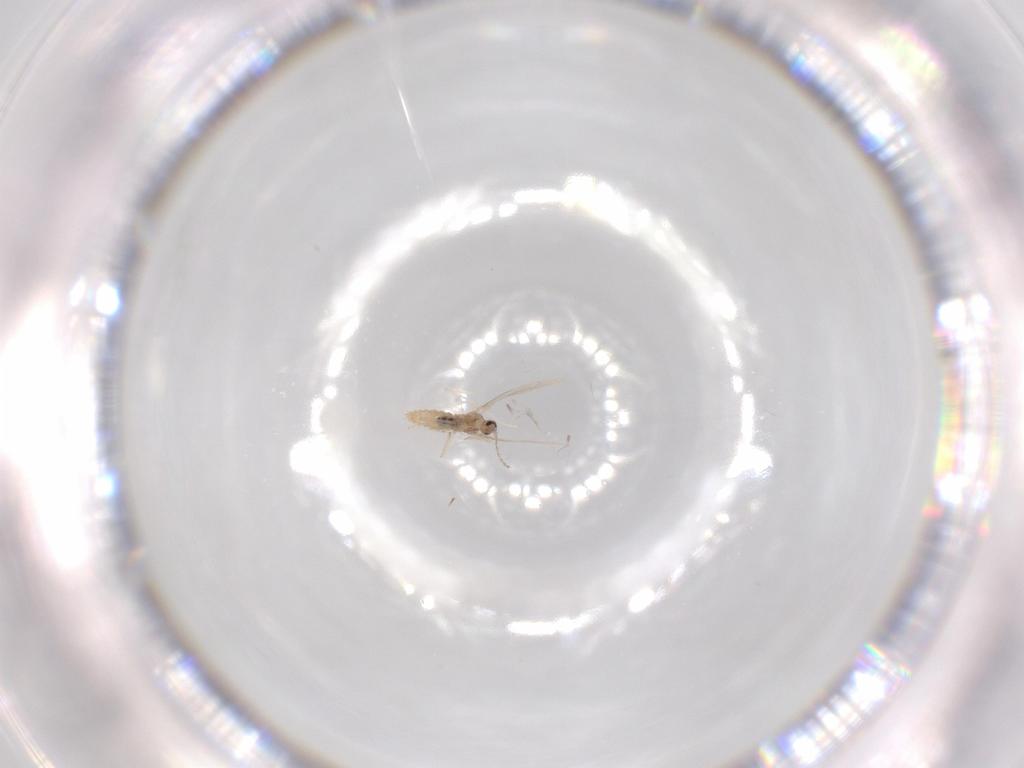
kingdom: Animalia
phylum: Arthropoda
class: Insecta
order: Diptera
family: Cecidomyiidae
